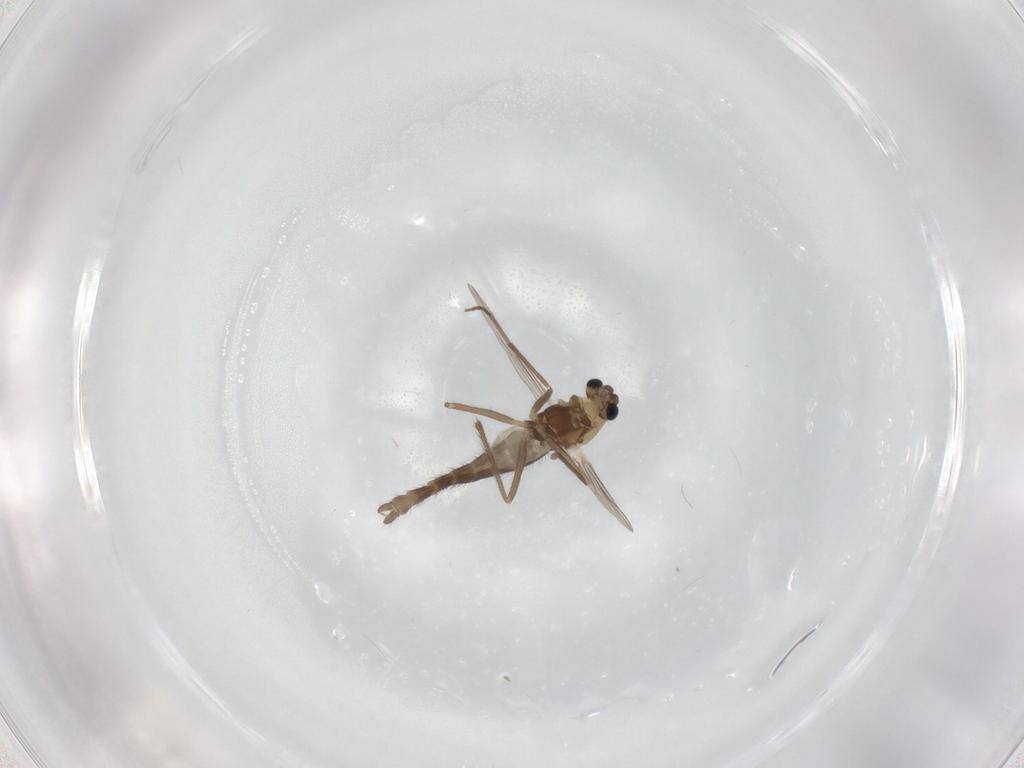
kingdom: Animalia
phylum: Arthropoda
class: Insecta
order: Diptera
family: Chironomidae
